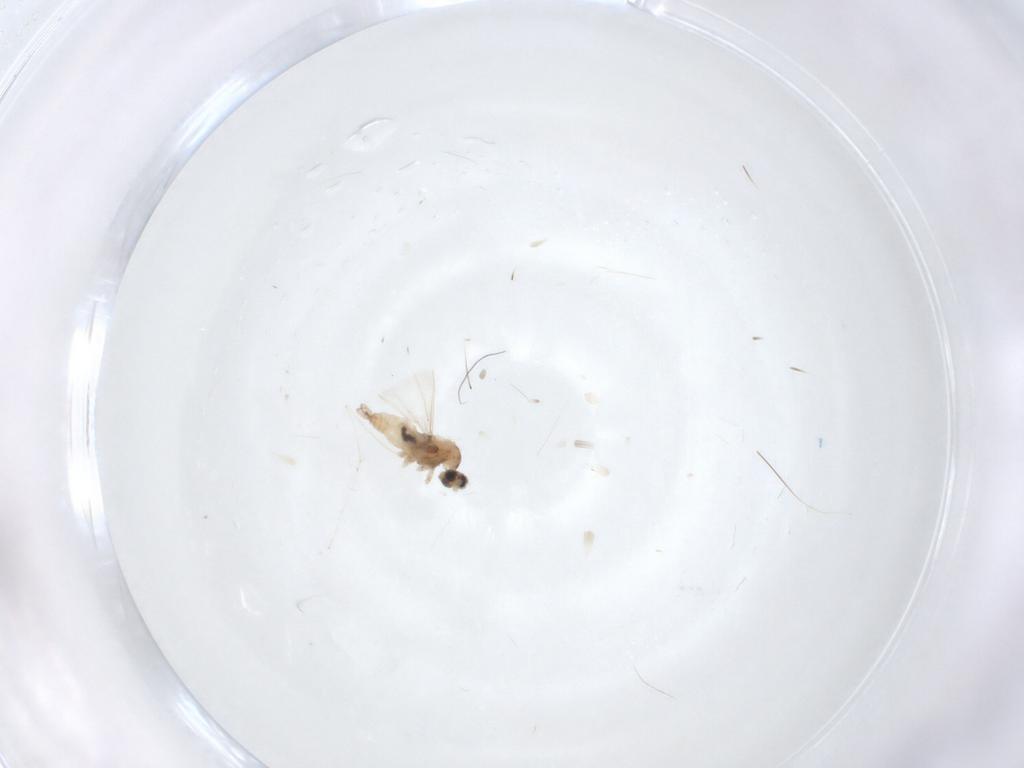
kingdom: Animalia
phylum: Arthropoda
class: Insecta
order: Diptera
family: Cecidomyiidae
